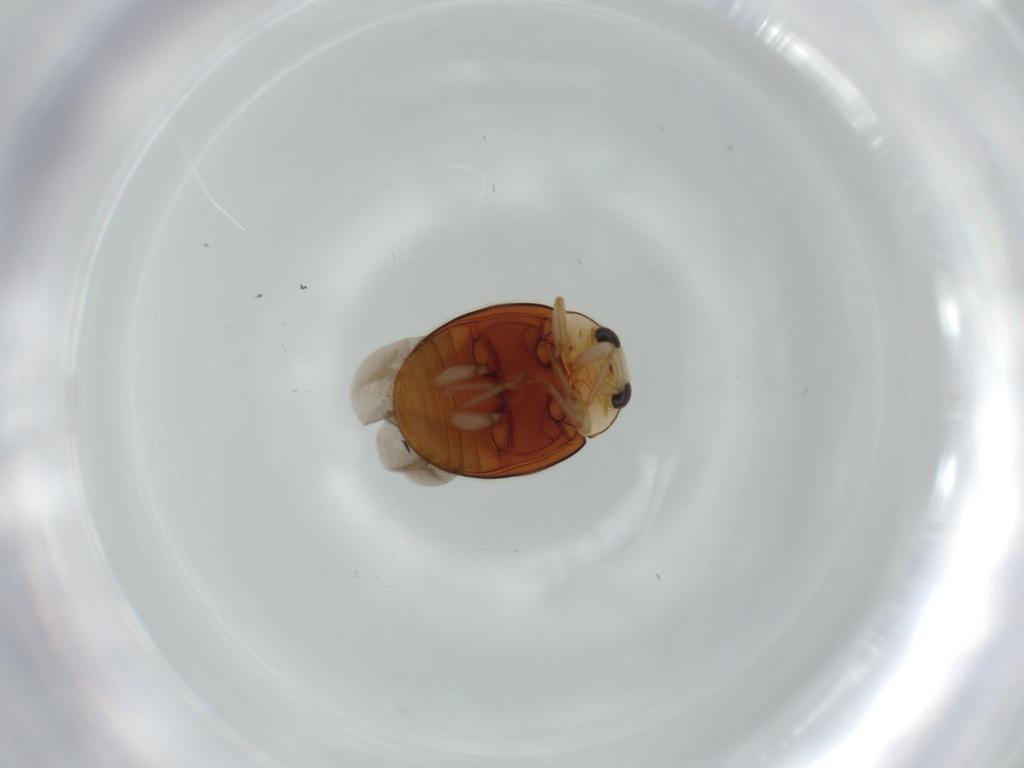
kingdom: Animalia
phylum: Arthropoda
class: Insecta
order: Coleoptera
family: Coccinellidae
